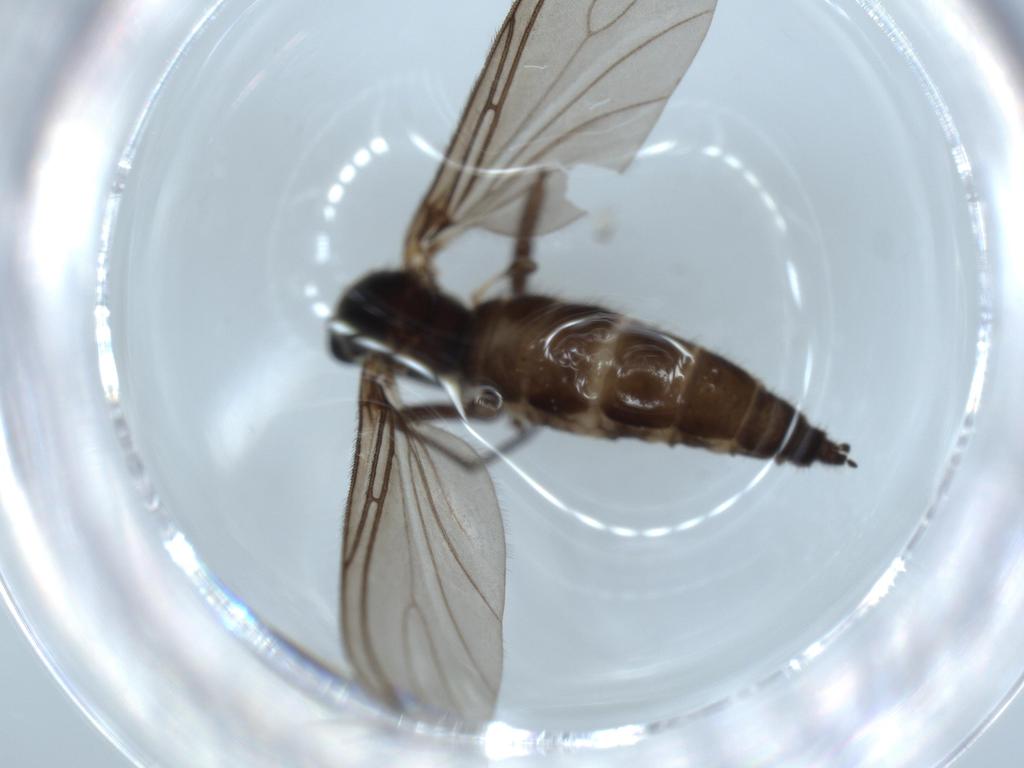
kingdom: Animalia
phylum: Arthropoda
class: Insecta
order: Diptera
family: Sciaridae
